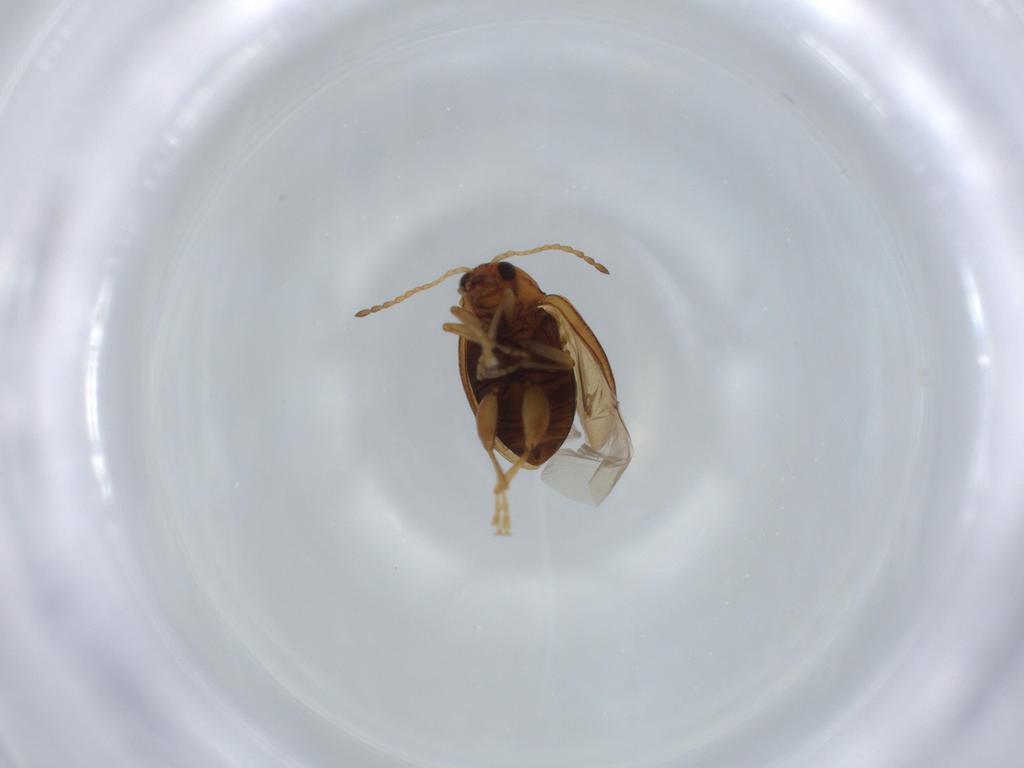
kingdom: Animalia
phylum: Arthropoda
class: Insecta
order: Coleoptera
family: Chrysomelidae
